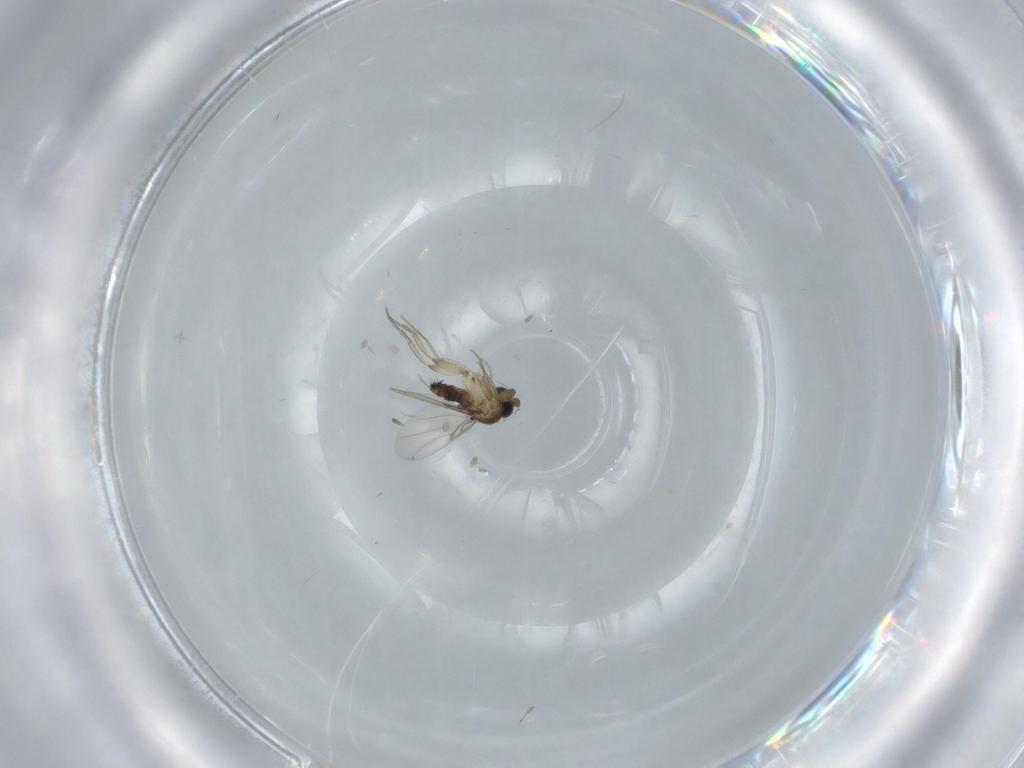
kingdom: Animalia
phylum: Arthropoda
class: Insecta
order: Diptera
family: Phoridae
